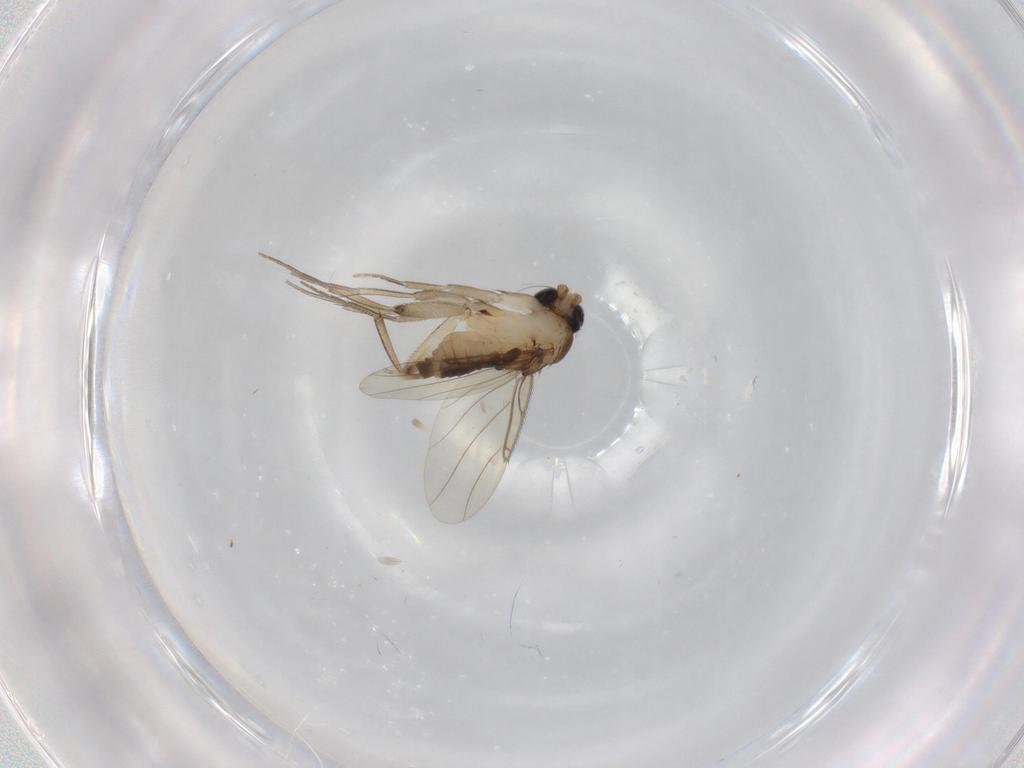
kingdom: Animalia
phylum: Arthropoda
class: Insecta
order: Diptera
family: Phoridae
